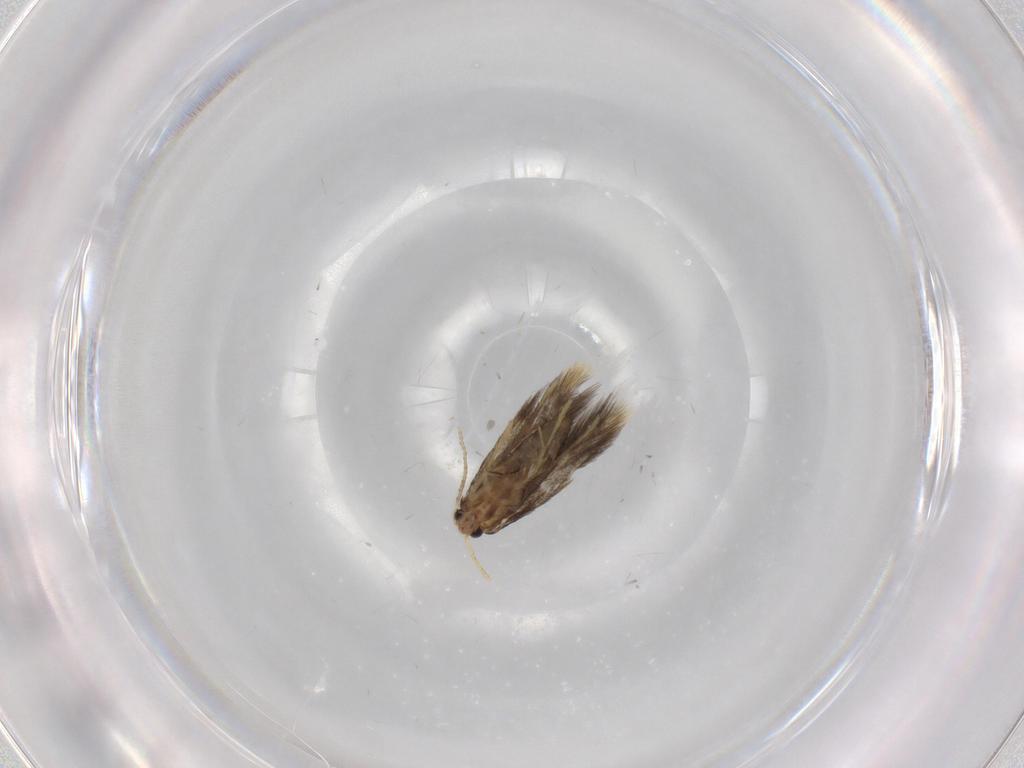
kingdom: Animalia
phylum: Arthropoda
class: Insecta
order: Lepidoptera
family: Copromorphidae
